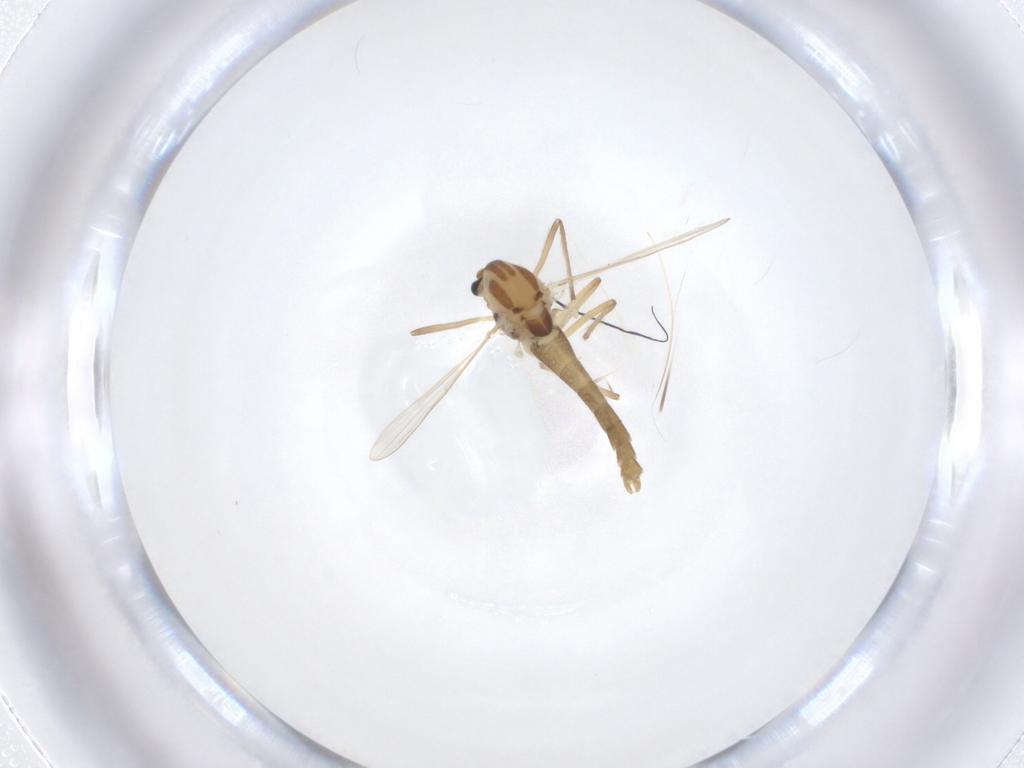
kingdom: Animalia
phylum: Arthropoda
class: Insecta
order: Diptera
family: Chironomidae
